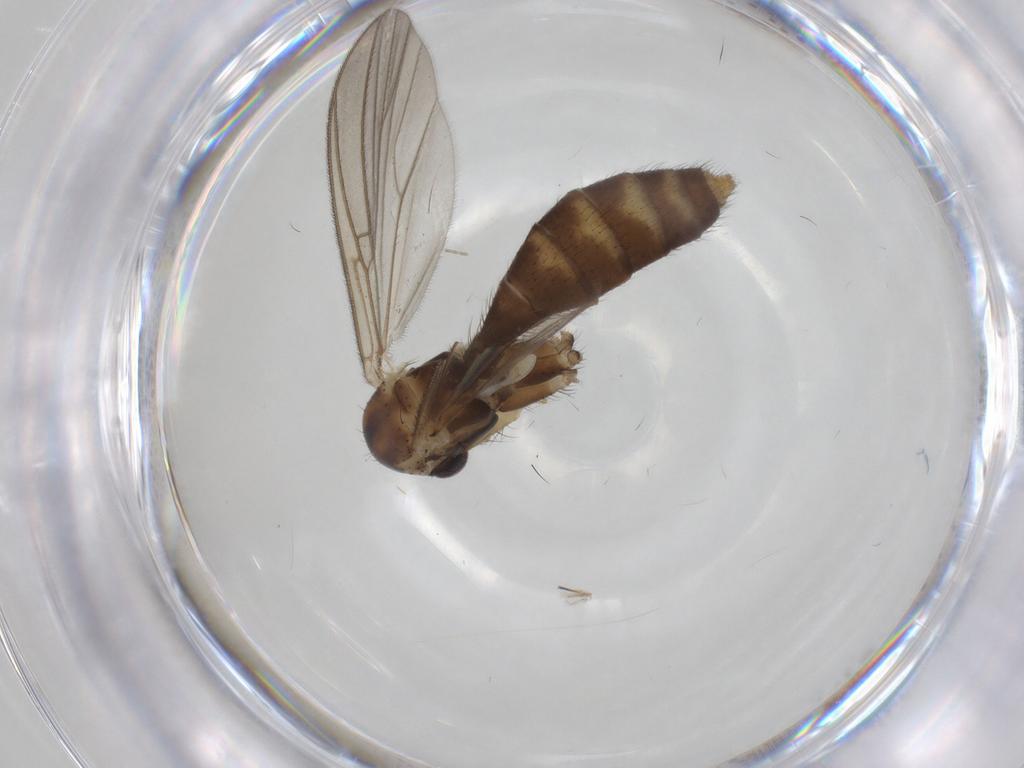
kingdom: Animalia
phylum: Arthropoda
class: Insecta
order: Diptera
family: Mycetophilidae
